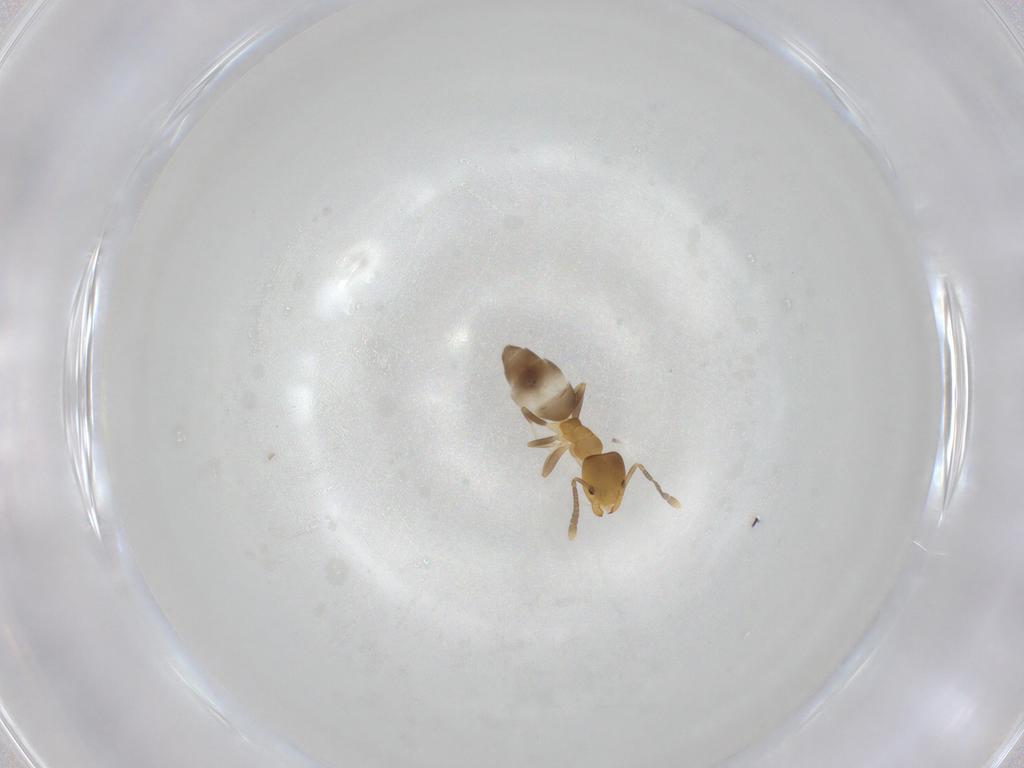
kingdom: Animalia
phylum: Arthropoda
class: Insecta
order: Hymenoptera
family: Formicidae
